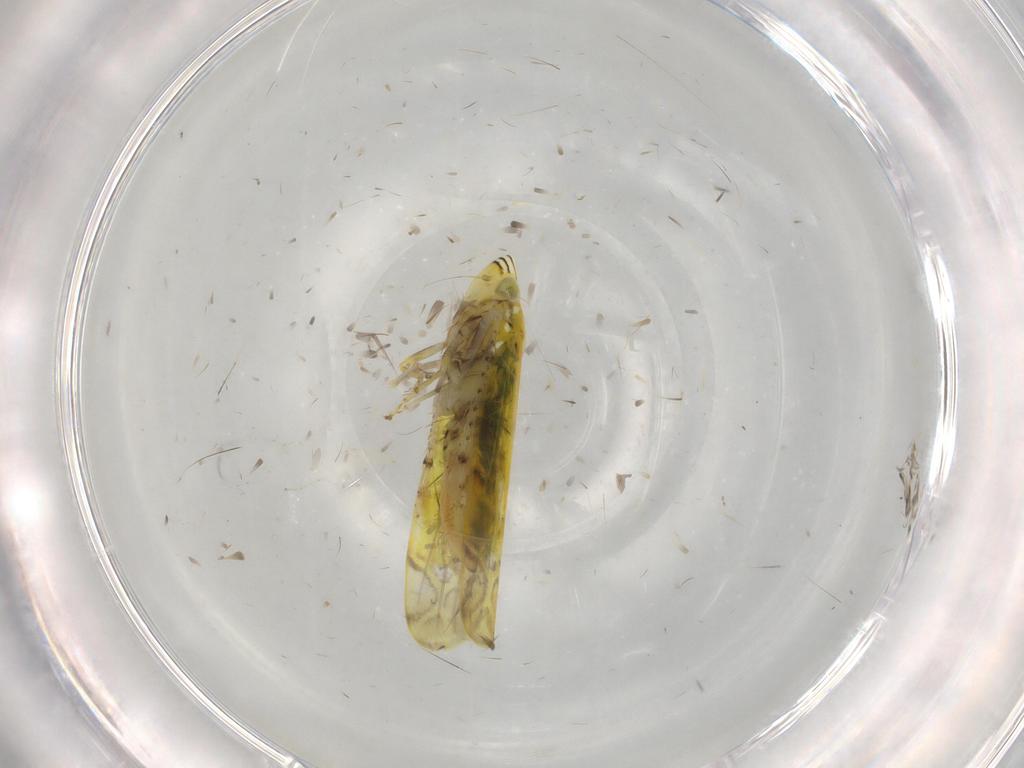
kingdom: Animalia
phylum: Arthropoda
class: Insecta
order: Hemiptera
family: Cicadellidae
